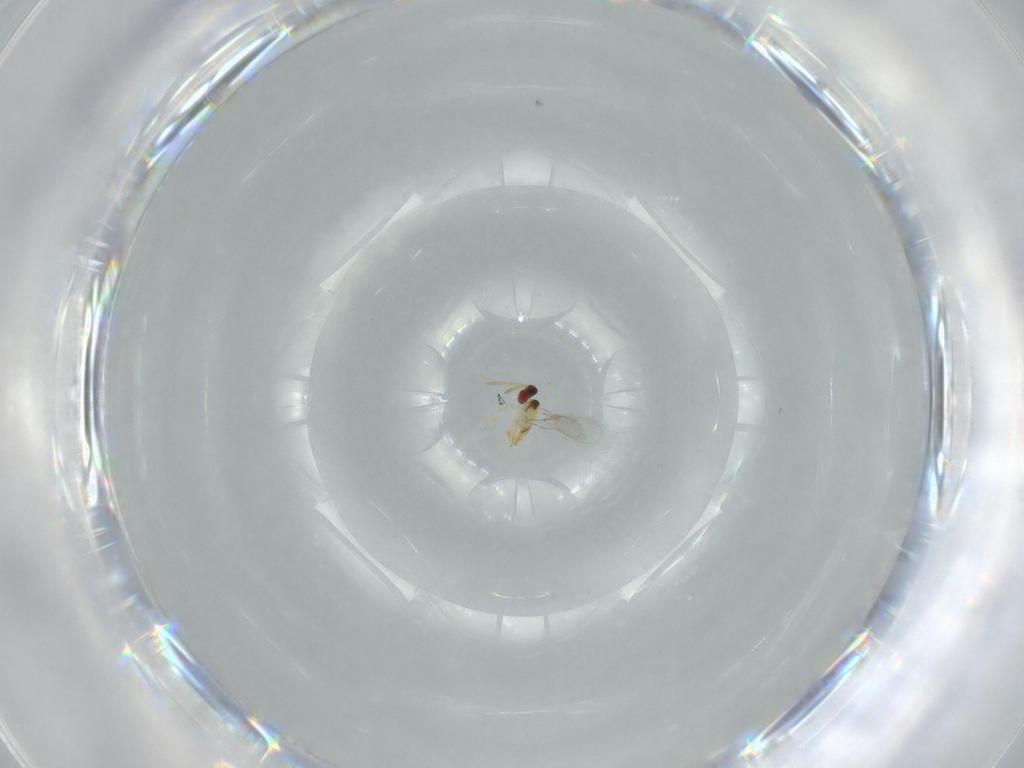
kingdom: Animalia
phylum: Arthropoda
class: Insecta
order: Hymenoptera
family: Aphelinidae
